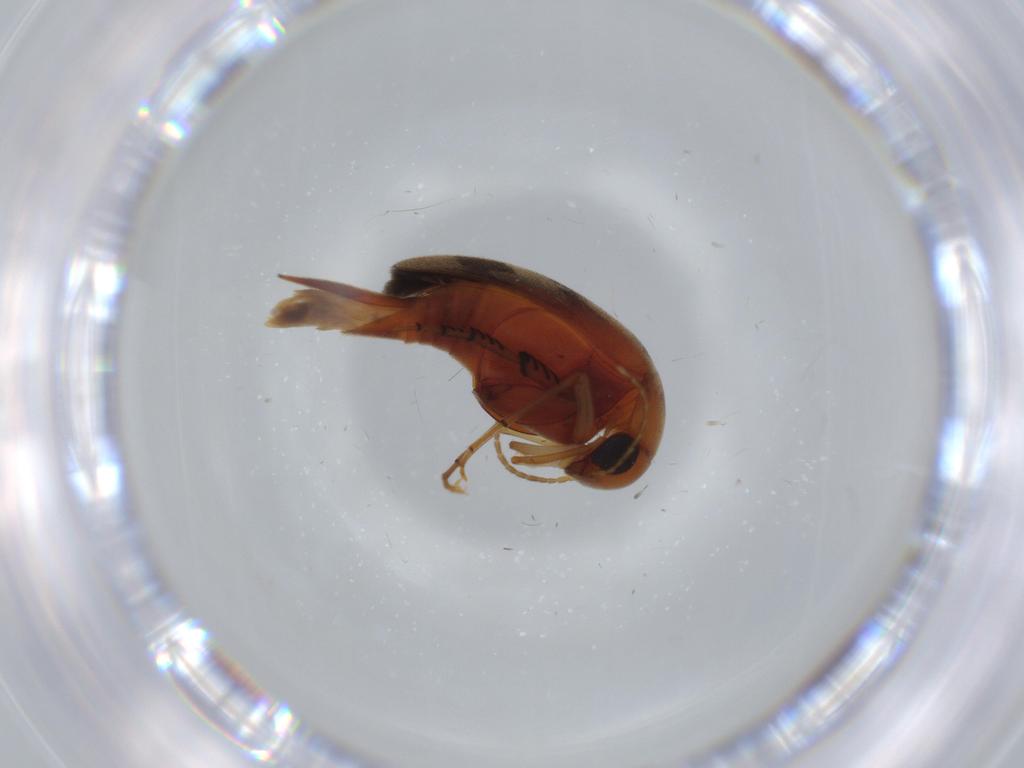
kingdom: Animalia
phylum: Arthropoda
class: Insecta
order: Coleoptera
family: Mordellidae
